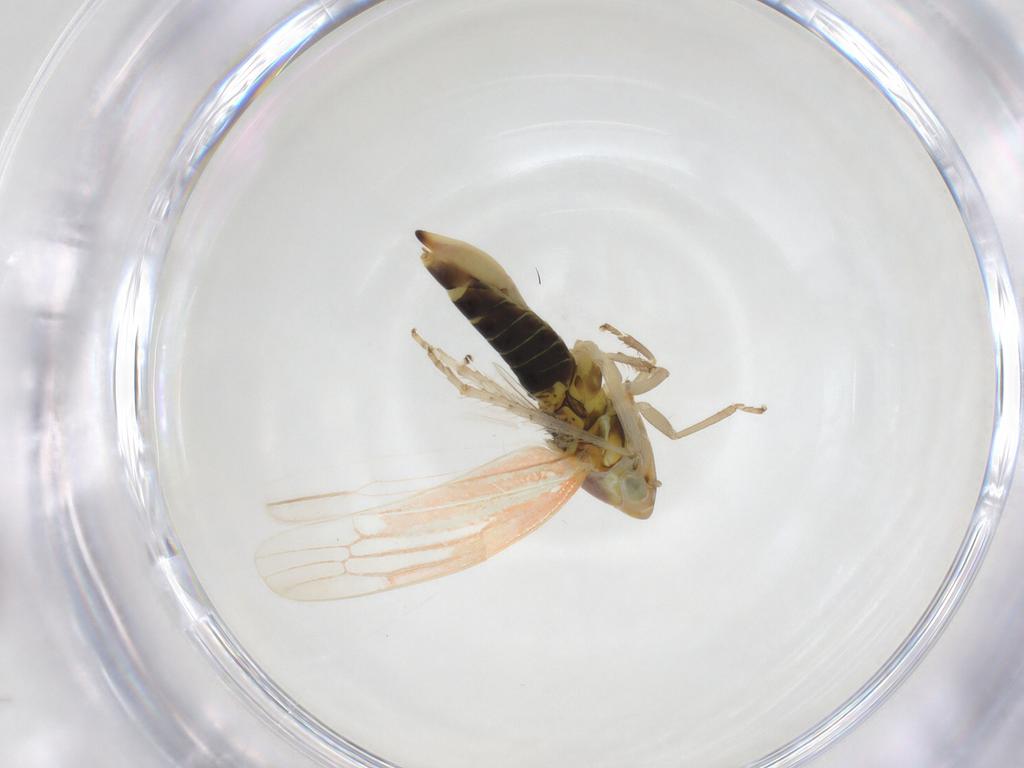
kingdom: Animalia
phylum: Arthropoda
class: Insecta
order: Hemiptera
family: Cicadellidae
